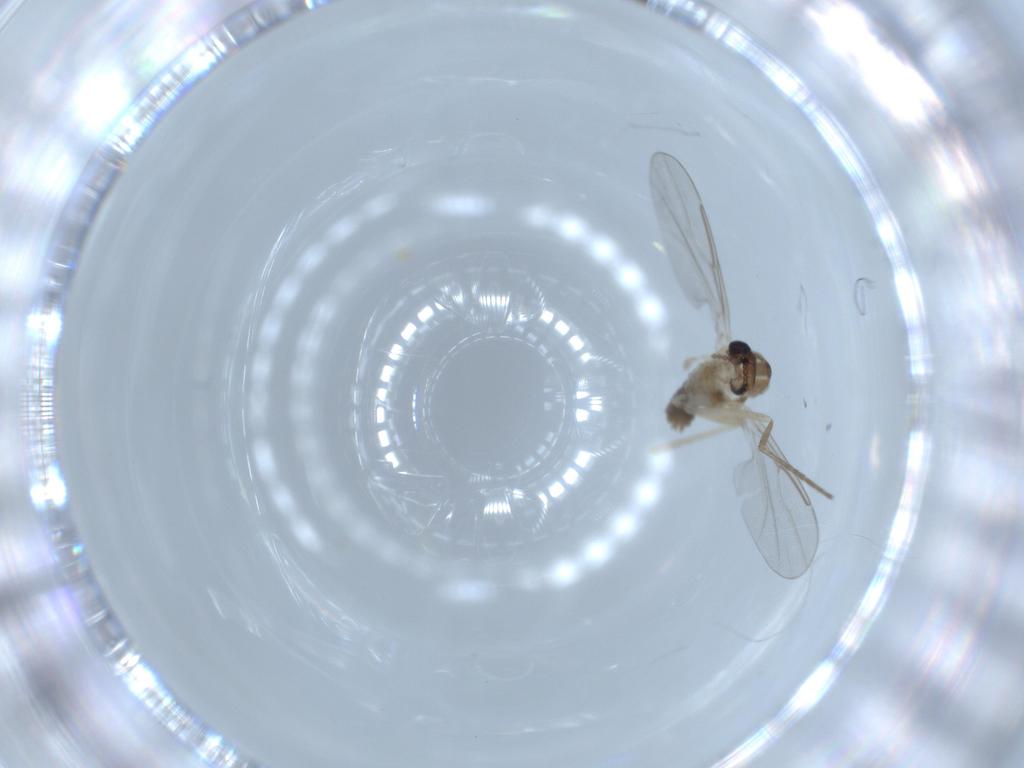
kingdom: Animalia
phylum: Arthropoda
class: Insecta
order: Diptera
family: Cecidomyiidae
